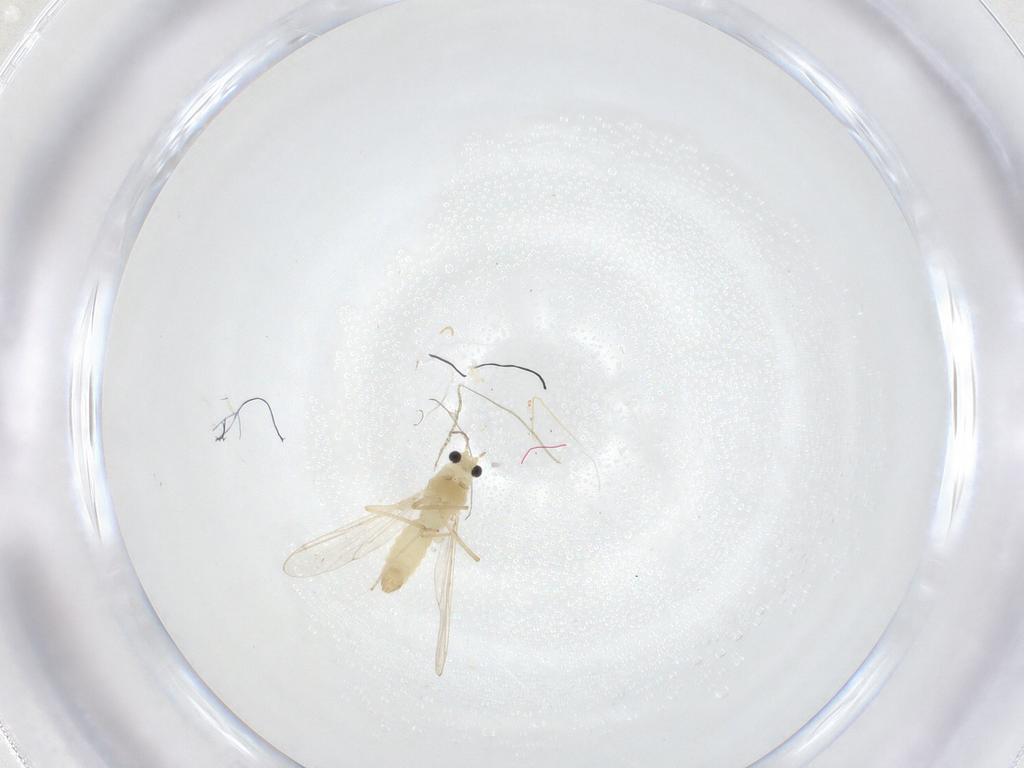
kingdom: Animalia
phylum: Arthropoda
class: Insecta
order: Diptera
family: Chironomidae
